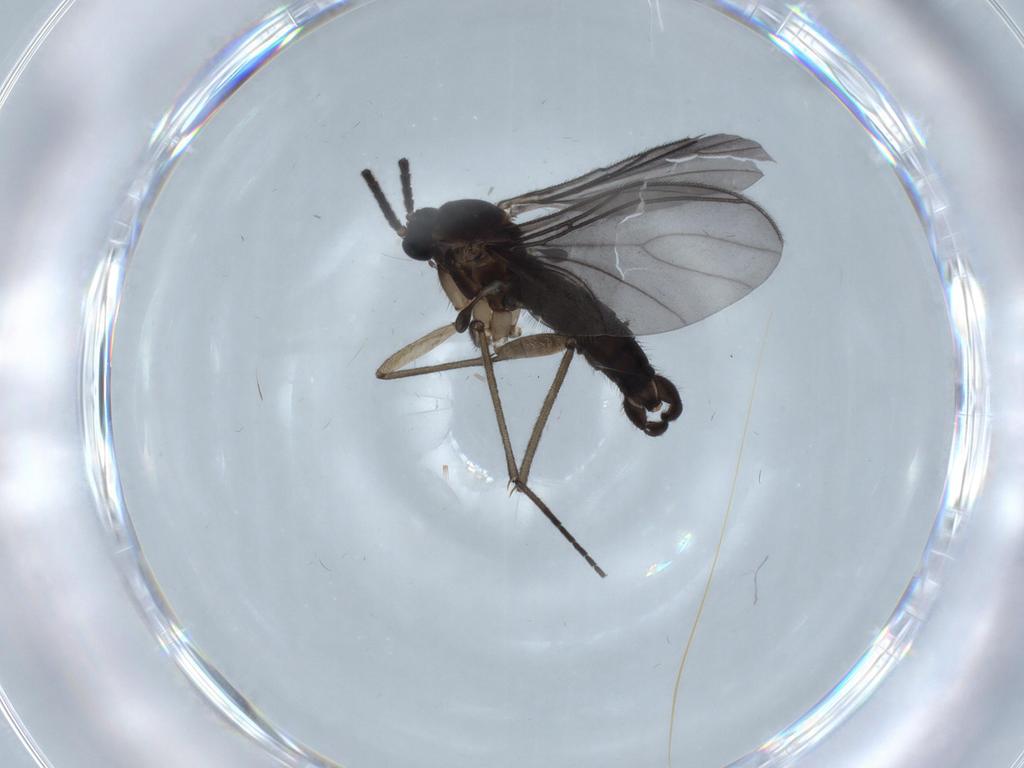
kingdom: Animalia
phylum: Arthropoda
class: Insecta
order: Diptera
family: Sciaridae
